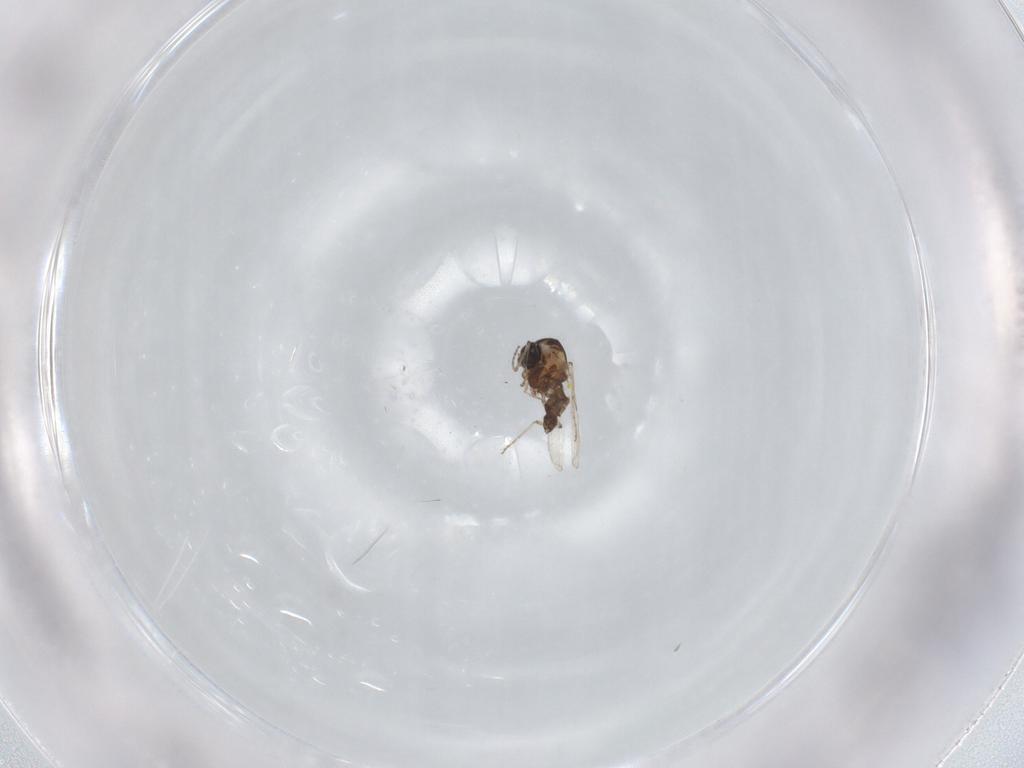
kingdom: Animalia
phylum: Arthropoda
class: Insecta
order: Diptera
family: Ceratopogonidae
